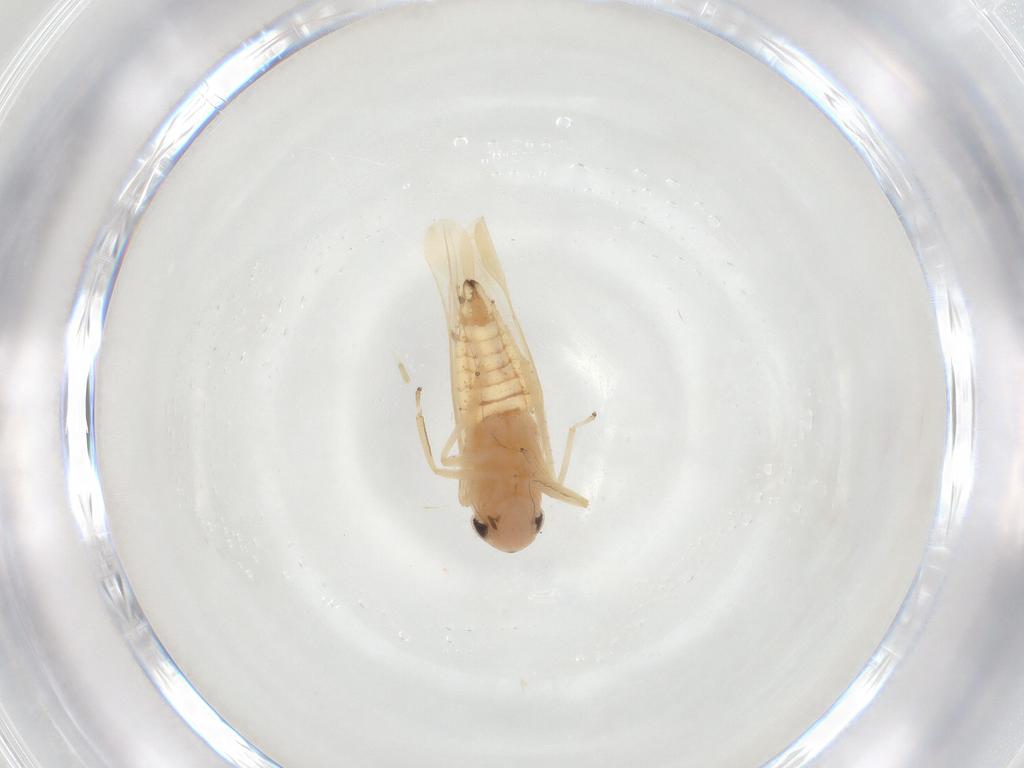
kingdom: Animalia
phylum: Arthropoda
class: Insecta
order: Hemiptera
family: Cicadellidae
